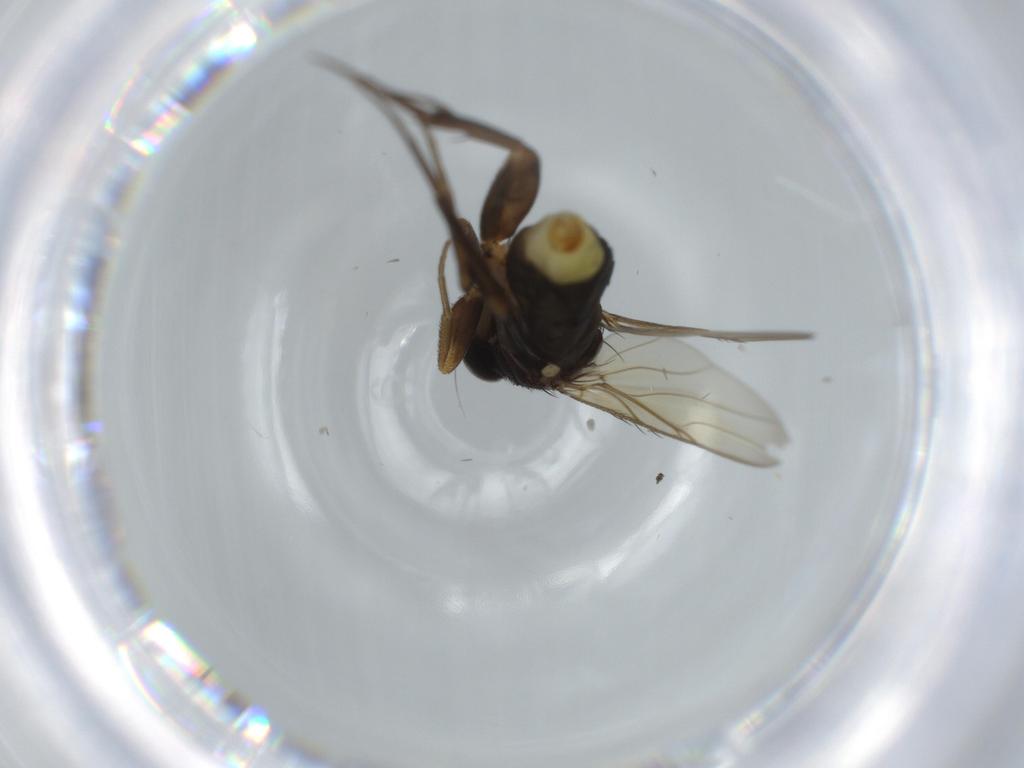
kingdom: Animalia
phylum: Arthropoda
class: Insecta
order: Diptera
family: Phoridae
